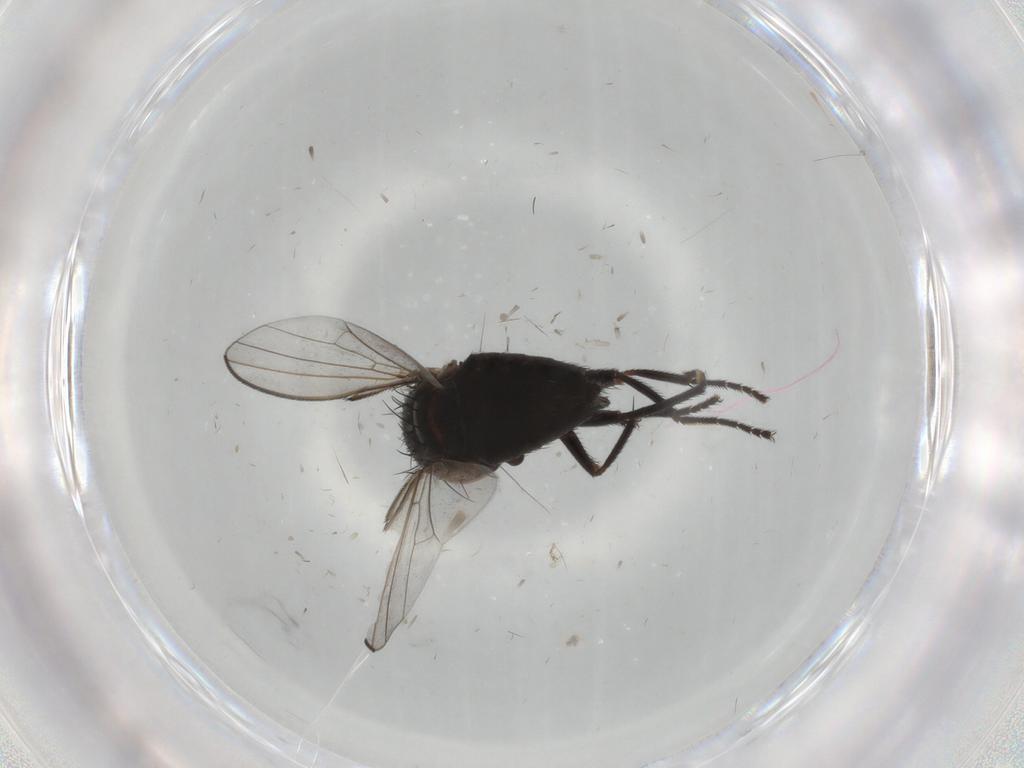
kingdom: Animalia
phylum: Arthropoda
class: Insecta
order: Diptera
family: Milichiidae
